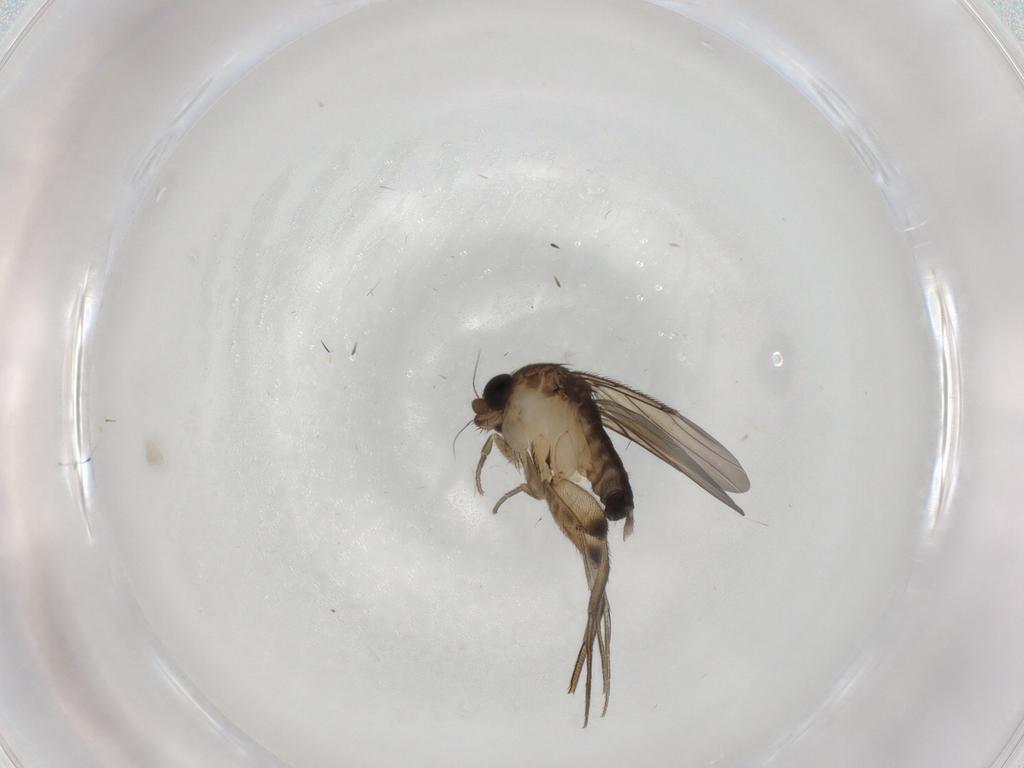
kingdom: Animalia
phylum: Arthropoda
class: Insecta
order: Diptera
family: Phoridae
